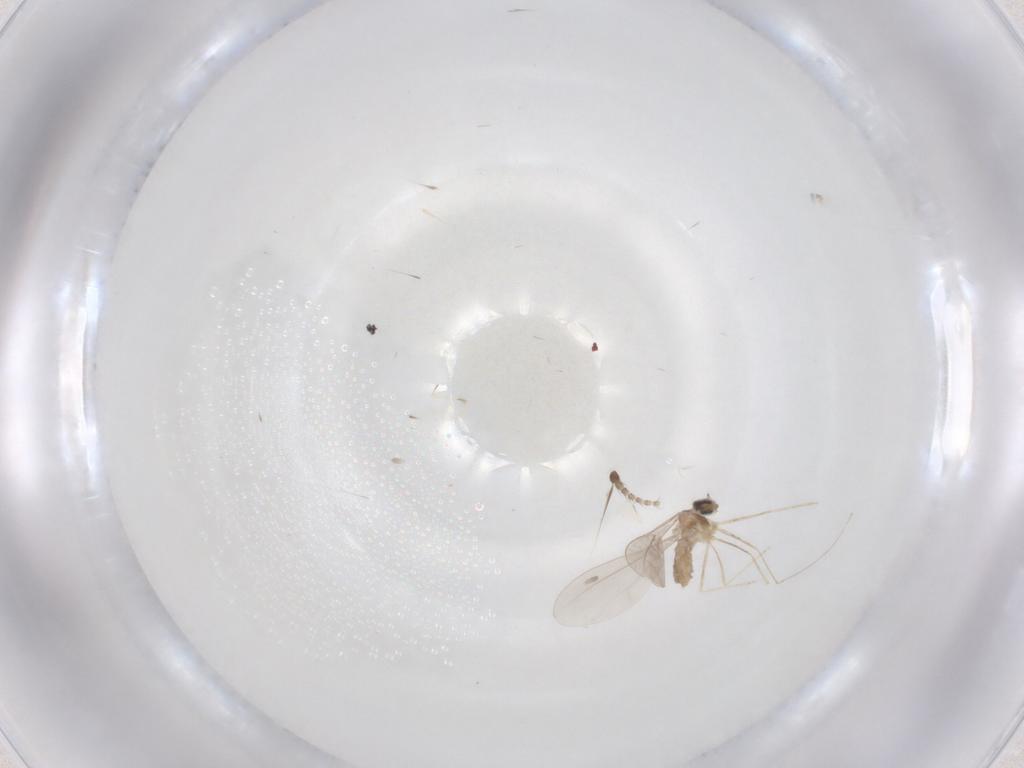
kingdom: Animalia
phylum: Arthropoda
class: Insecta
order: Diptera
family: Cecidomyiidae
